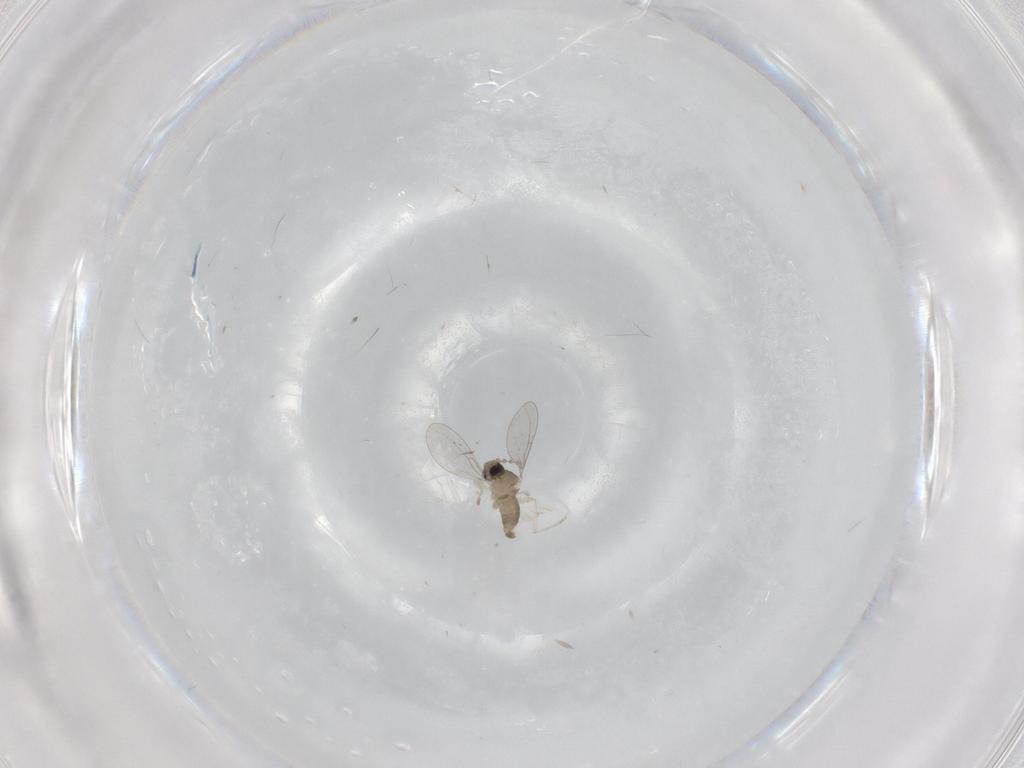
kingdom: Animalia
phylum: Arthropoda
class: Insecta
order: Diptera
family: Cecidomyiidae
